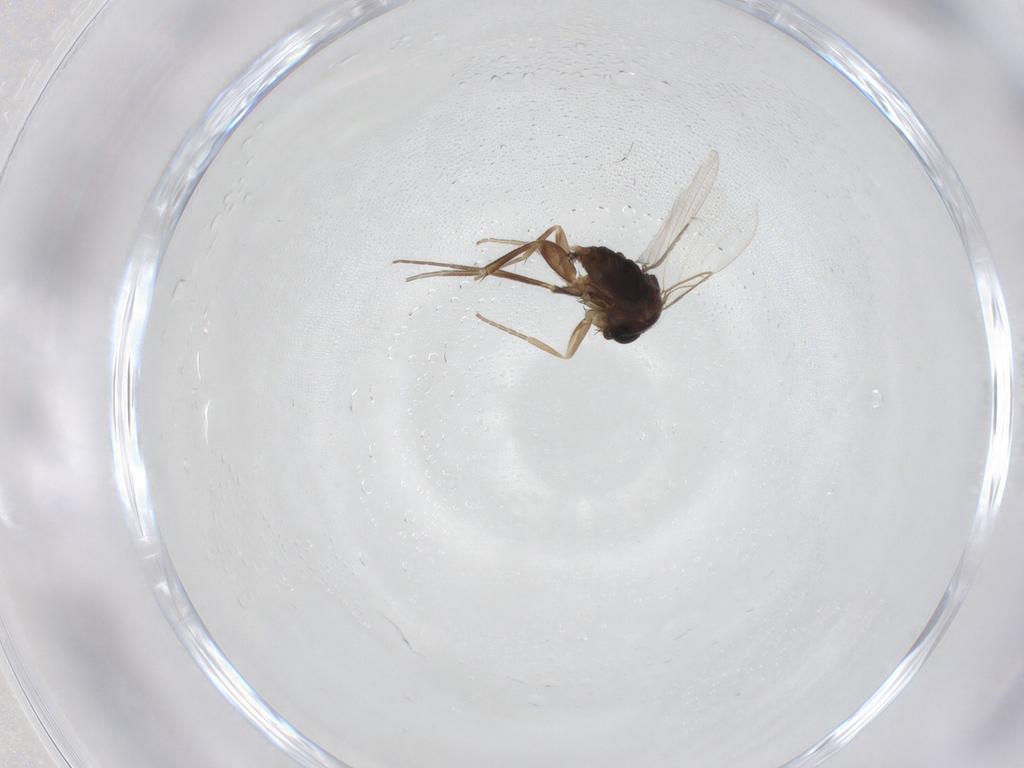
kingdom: Animalia
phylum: Arthropoda
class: Insecta
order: Diptera
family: Phoridae
